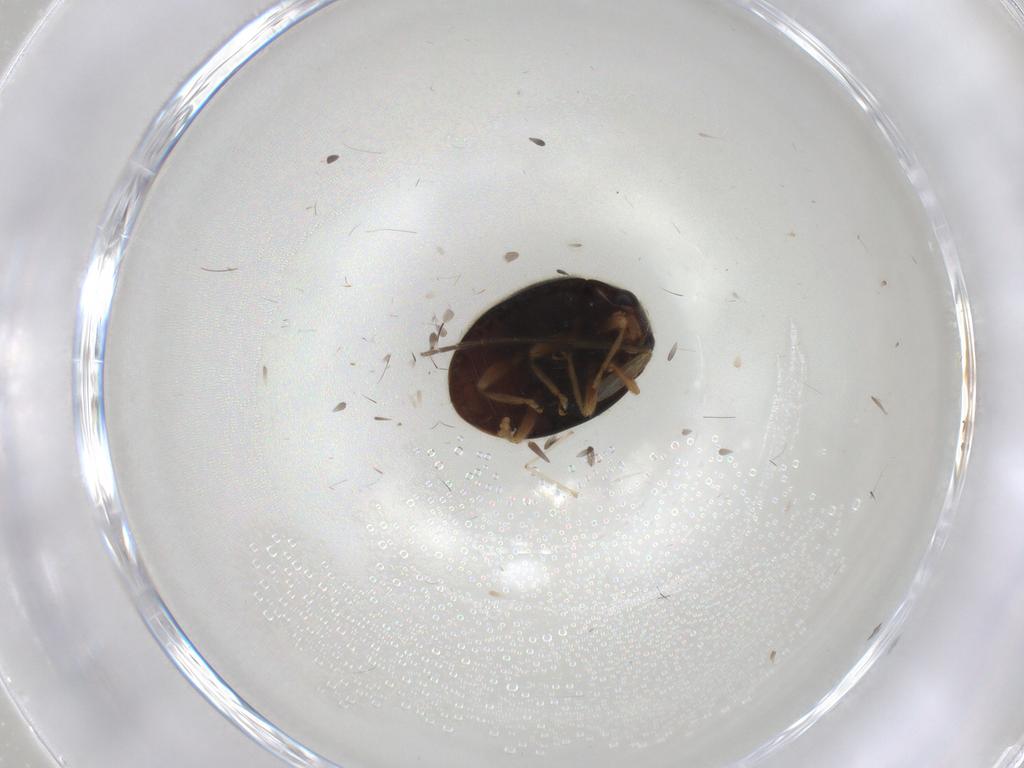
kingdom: Animalia
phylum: Arthropoda
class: Insecta
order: Coleoptera
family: Coccinellidae
